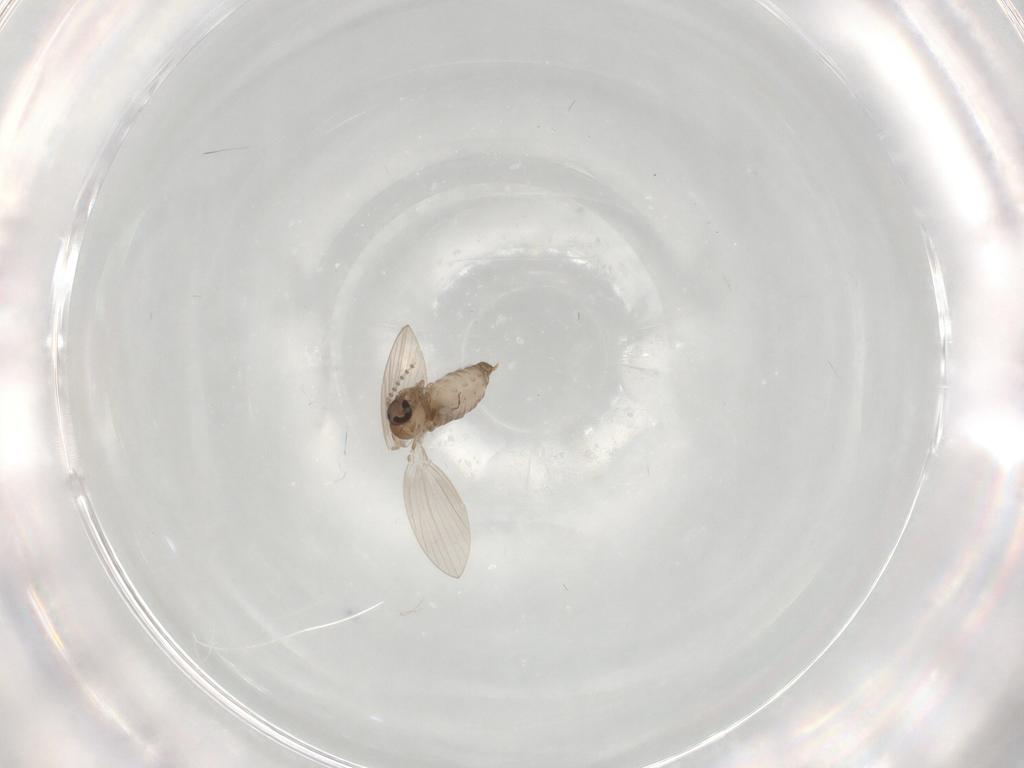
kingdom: Animalia
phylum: Arthropoda
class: Insecta
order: Diptera
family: Psychodidae
